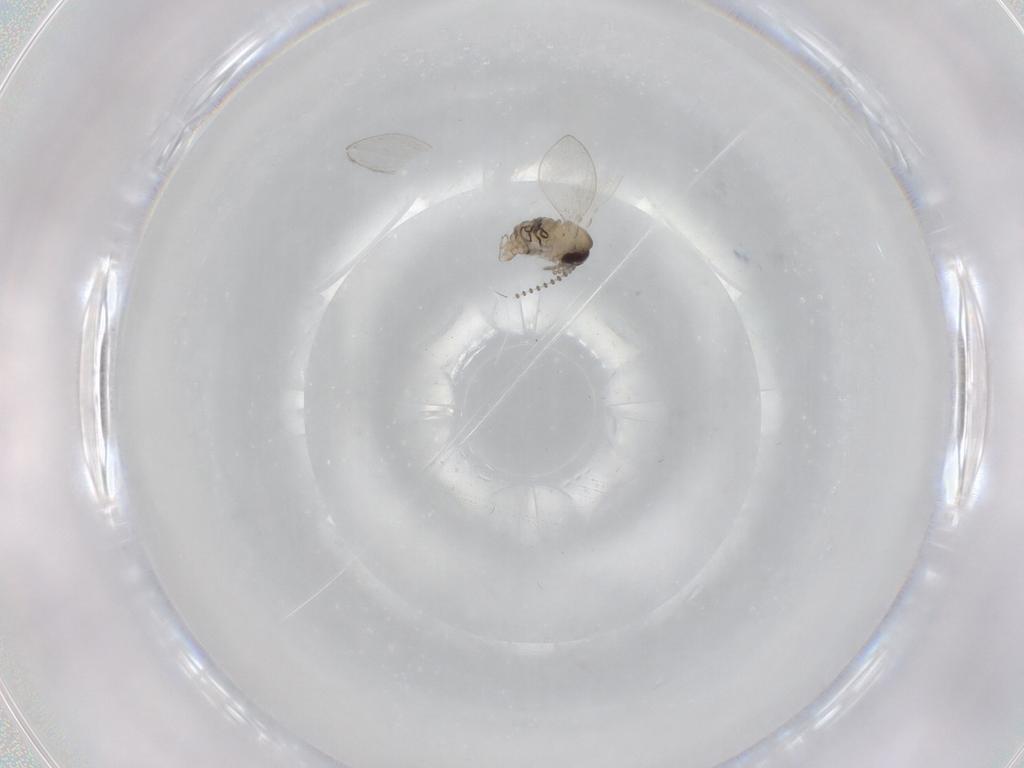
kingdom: Animalia
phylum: Arthropoda
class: Insecta
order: Diptera
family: Psychodidae
